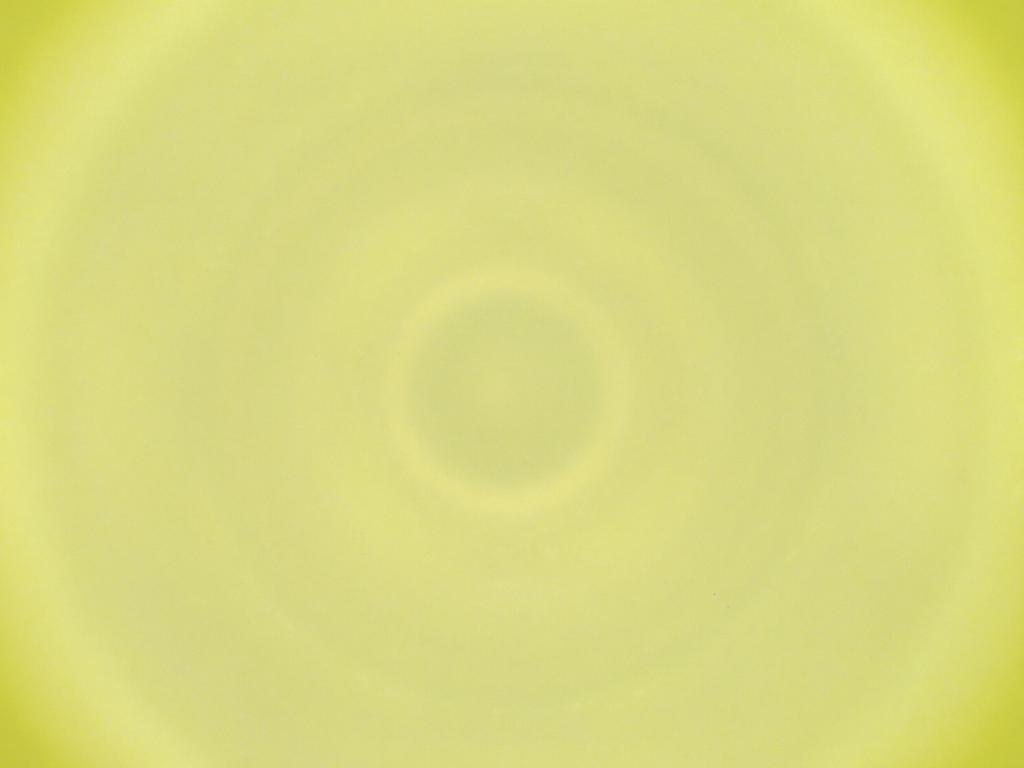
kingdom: Animalia
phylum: Arthropoda
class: Insecta
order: Diptera
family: Cecidomyiidae
